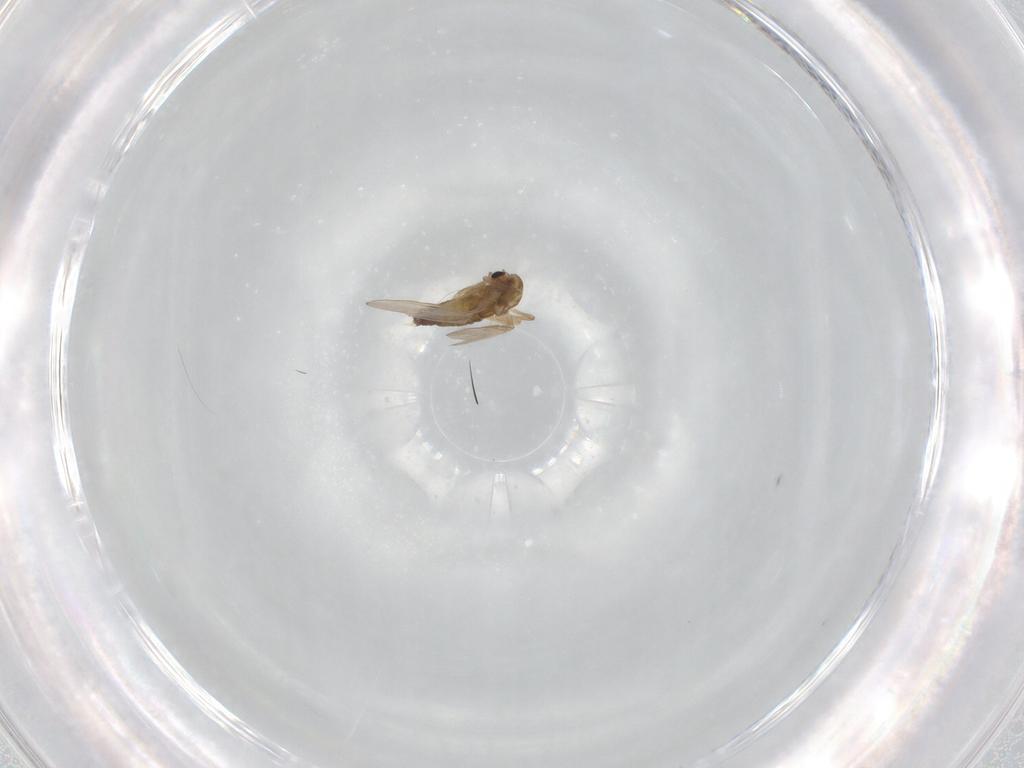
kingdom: Animalia
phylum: Arthropoda
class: Insecta
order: Diptera
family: Chironomidae
